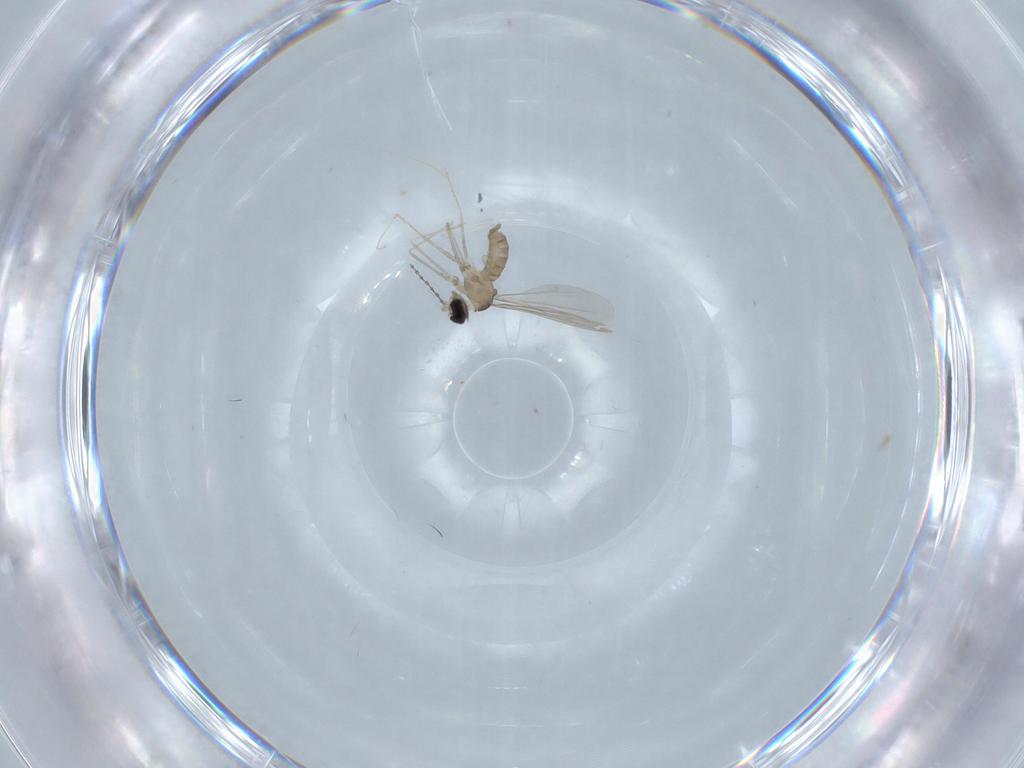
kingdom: Animalia
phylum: Arthropoda
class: Insecta
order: Diptera
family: Cecidomyiidae
